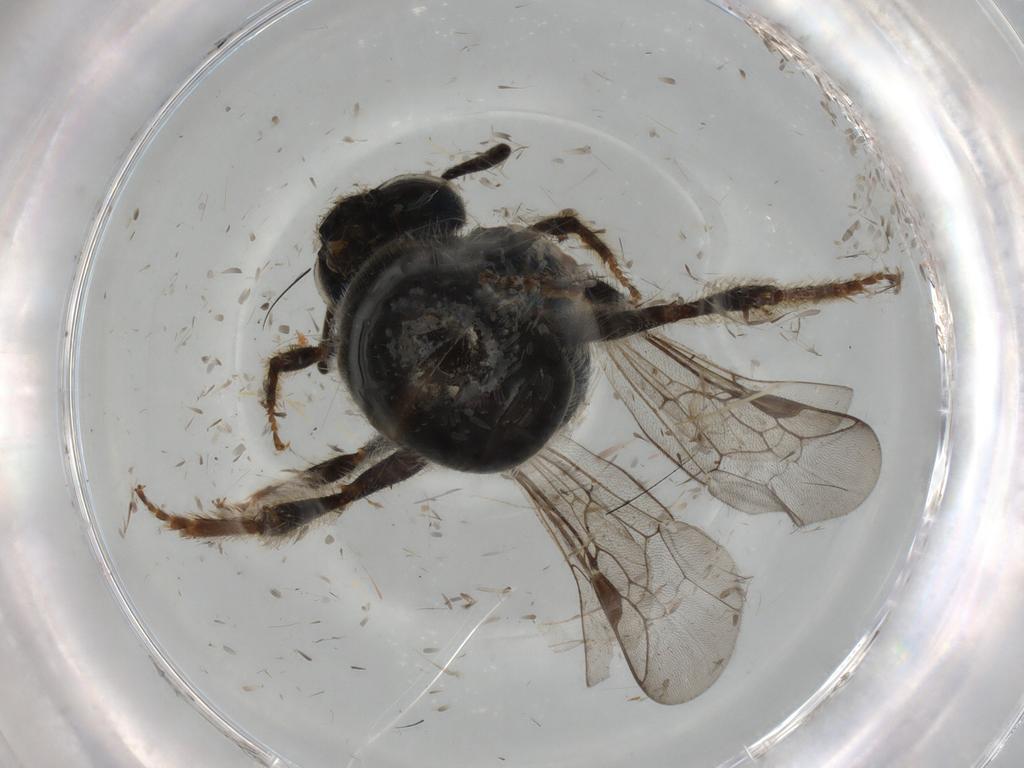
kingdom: Animalia
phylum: Arthropoda
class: Insecta
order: Hymenoptera
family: Halictidae
